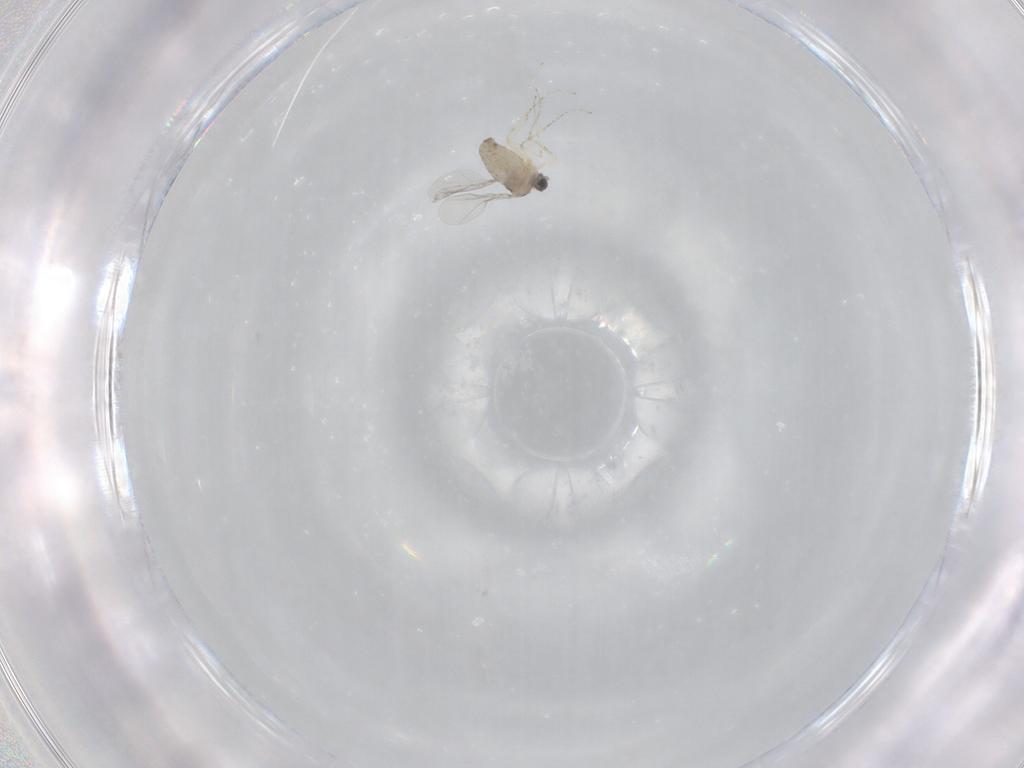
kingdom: Animalia
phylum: Arthropoda
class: Insecta
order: Diptera
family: Cecidomyiidae
